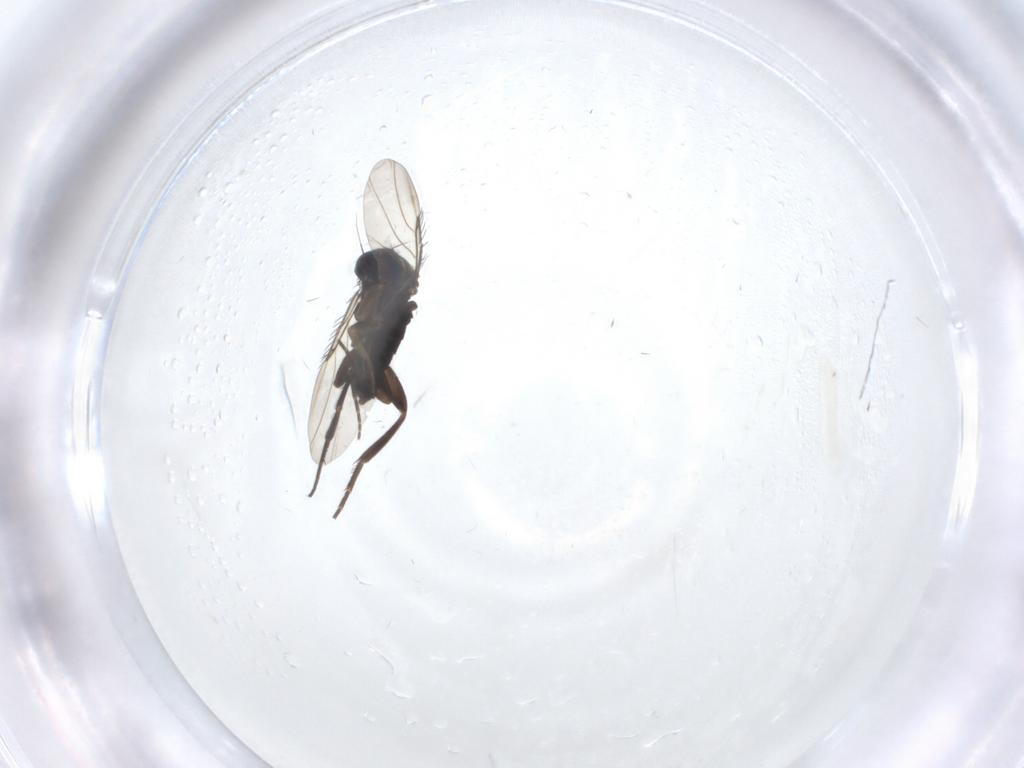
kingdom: Animalia
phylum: Arthropoda
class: Insecta
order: Diptera
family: Phoridae
